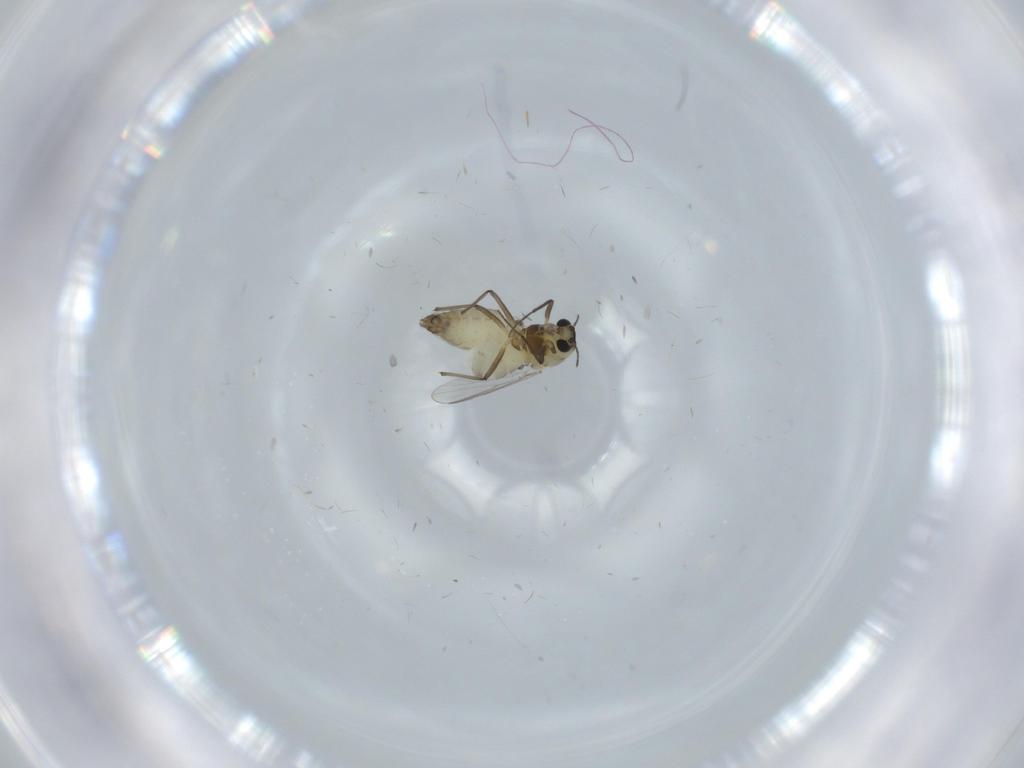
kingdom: Animalia
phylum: Arthropoda
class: Insecta
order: Diptera
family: Chironomidae
